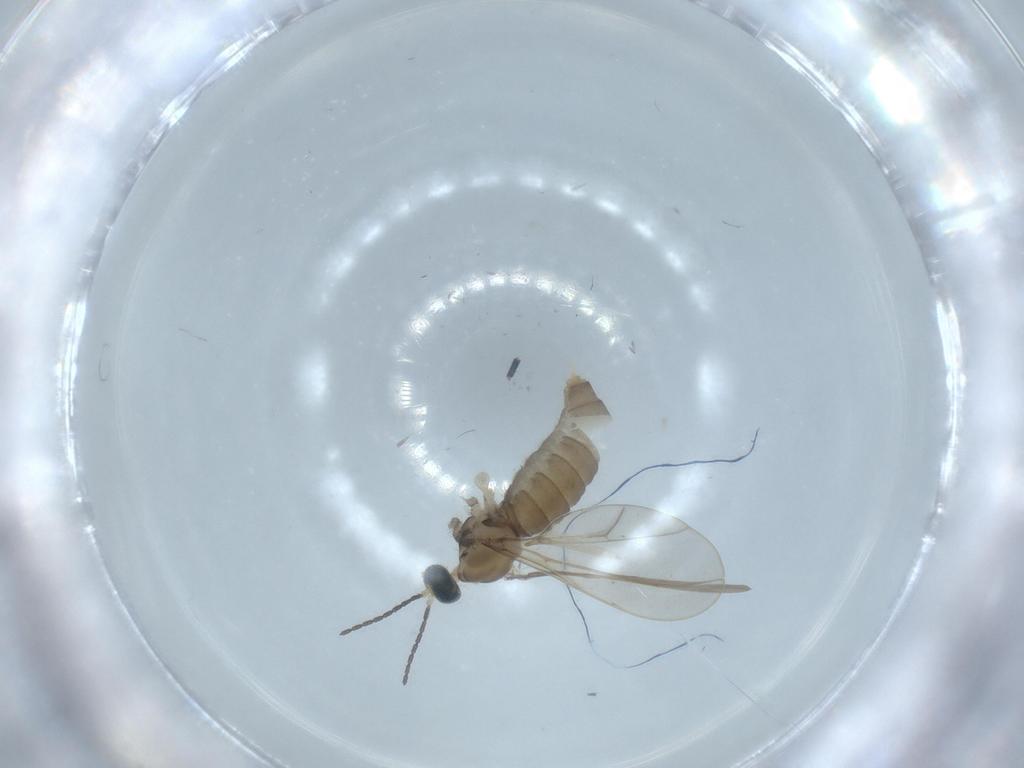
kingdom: Animalia
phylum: Arthropoda
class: Insecta
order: Diptera
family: Cecidomyiidae
